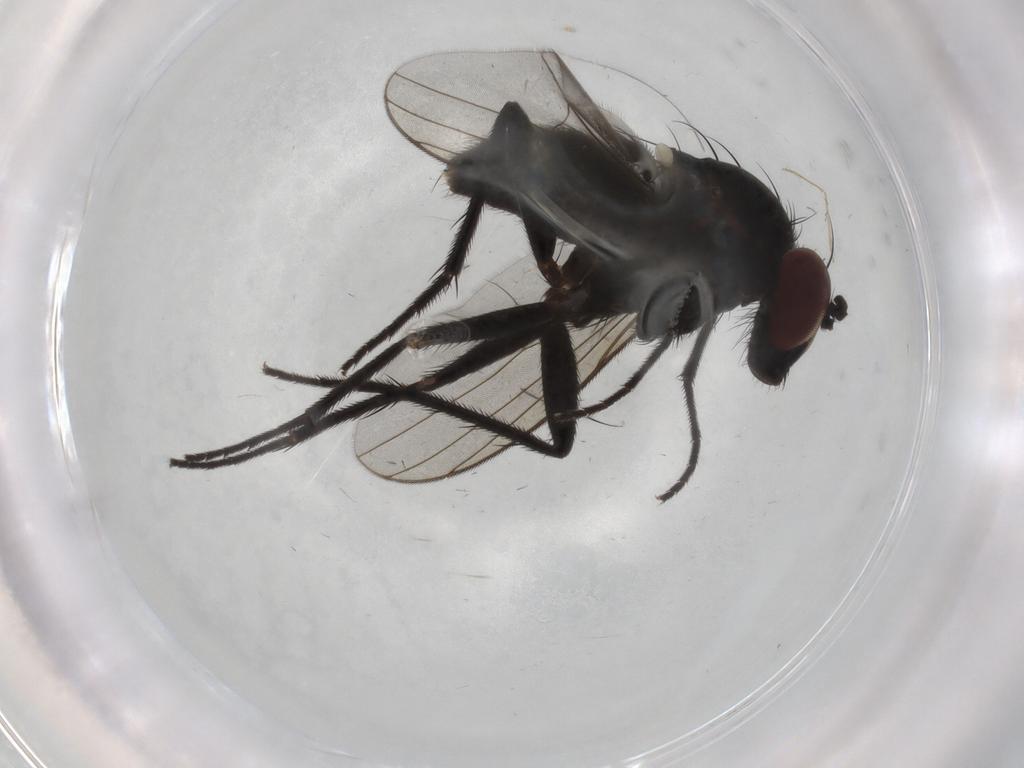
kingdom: Animalia
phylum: Arthropoda
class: Insecta
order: Diptera
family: Dolichopodidae
